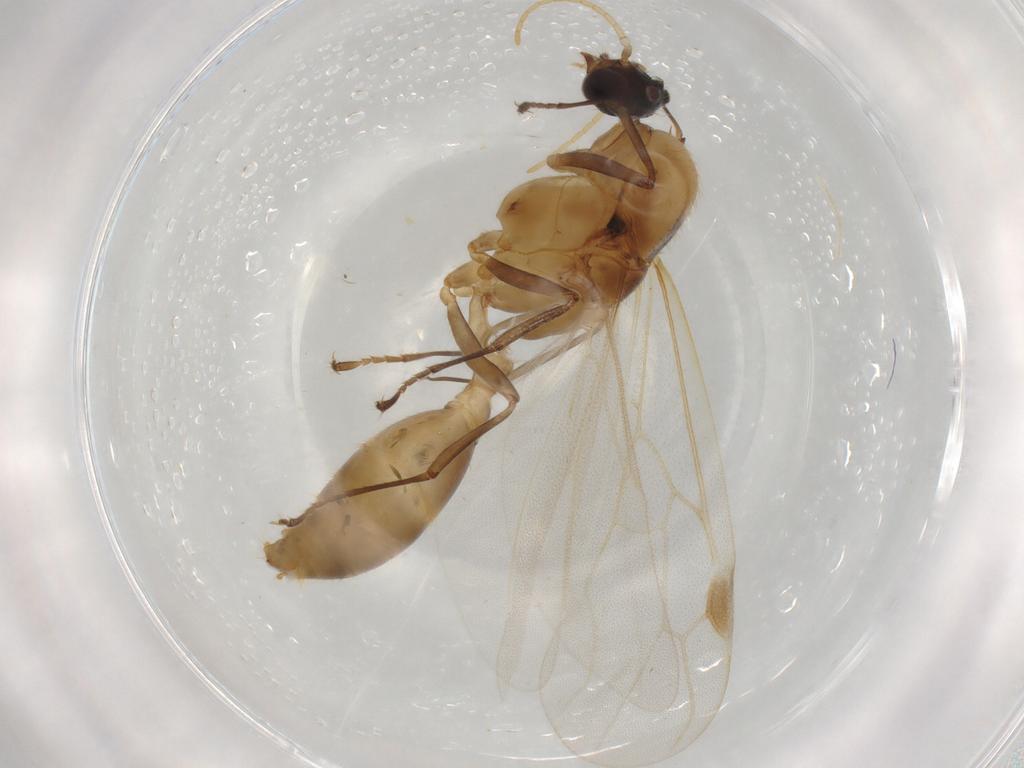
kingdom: Animalia
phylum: Arthropoda
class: Insecta
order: Hymenoptera
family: Formicidae
